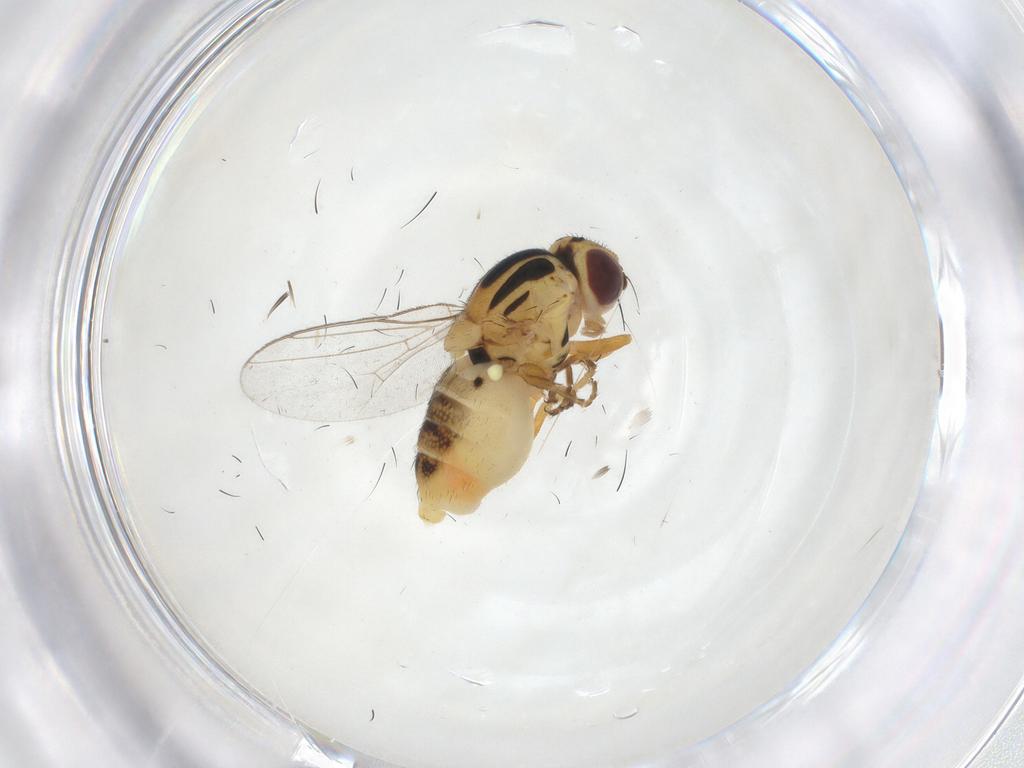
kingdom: Animalia
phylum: Arthropoda
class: Insecta
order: Diptera
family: Chloropidae
